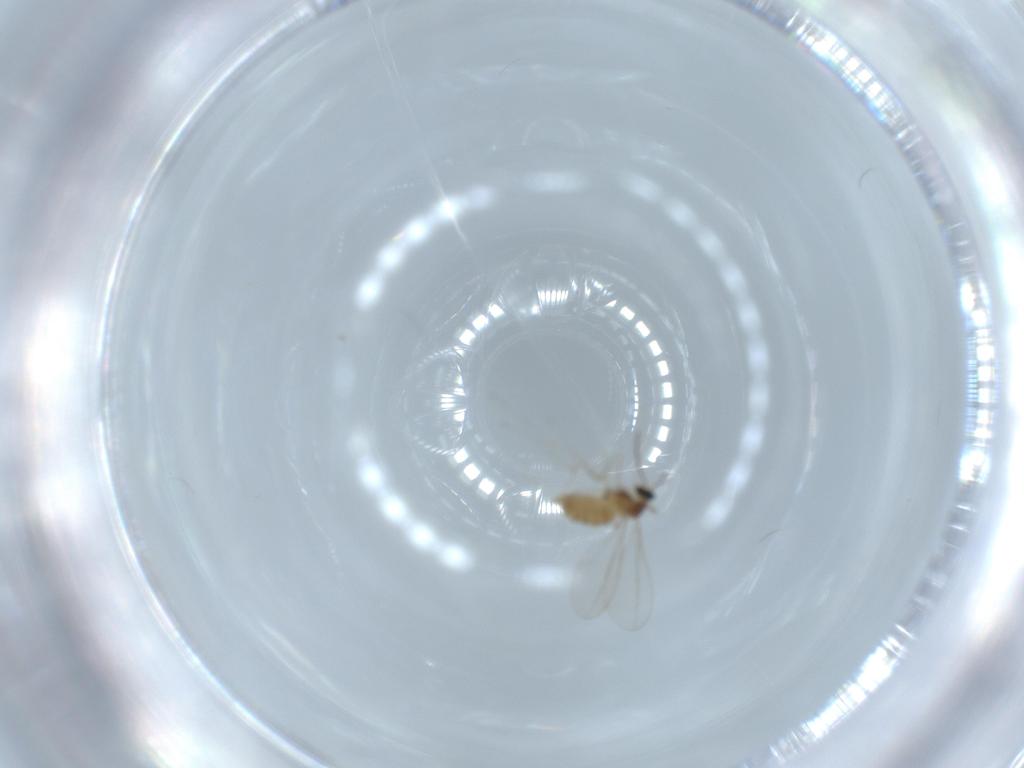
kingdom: Animalia
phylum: Arthropoda
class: Insecta
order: Diptera
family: Cecidomyiidae
